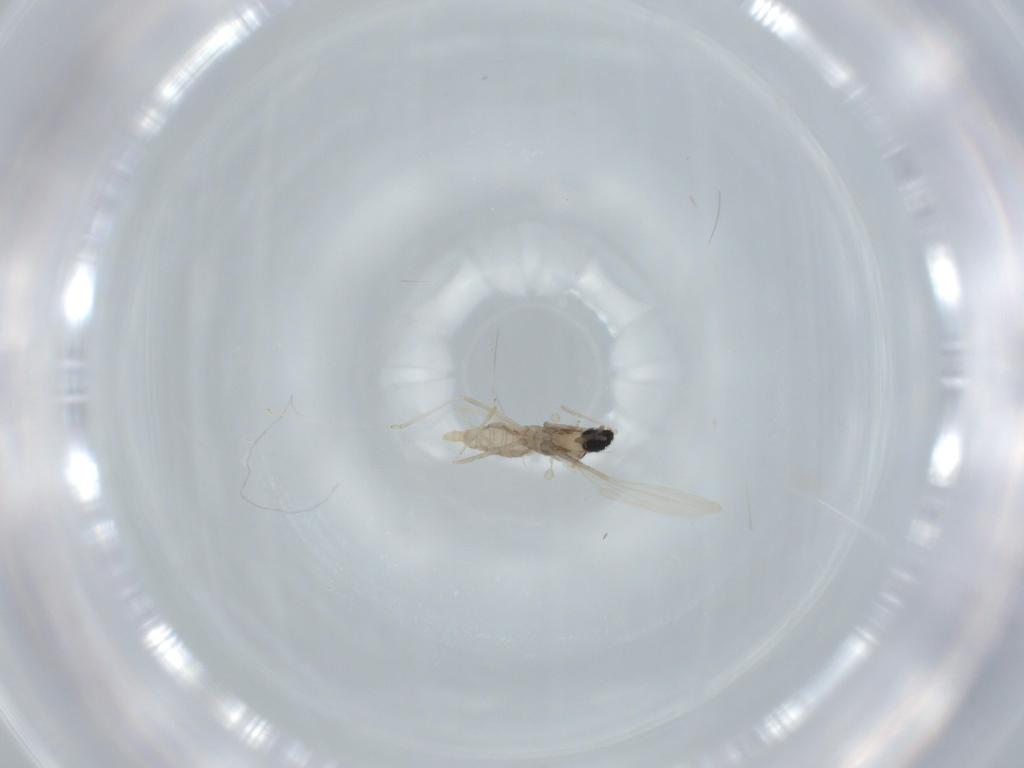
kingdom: Animalia
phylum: Arthropoda
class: Insecta
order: Diptera
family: Cecidomyiidae
